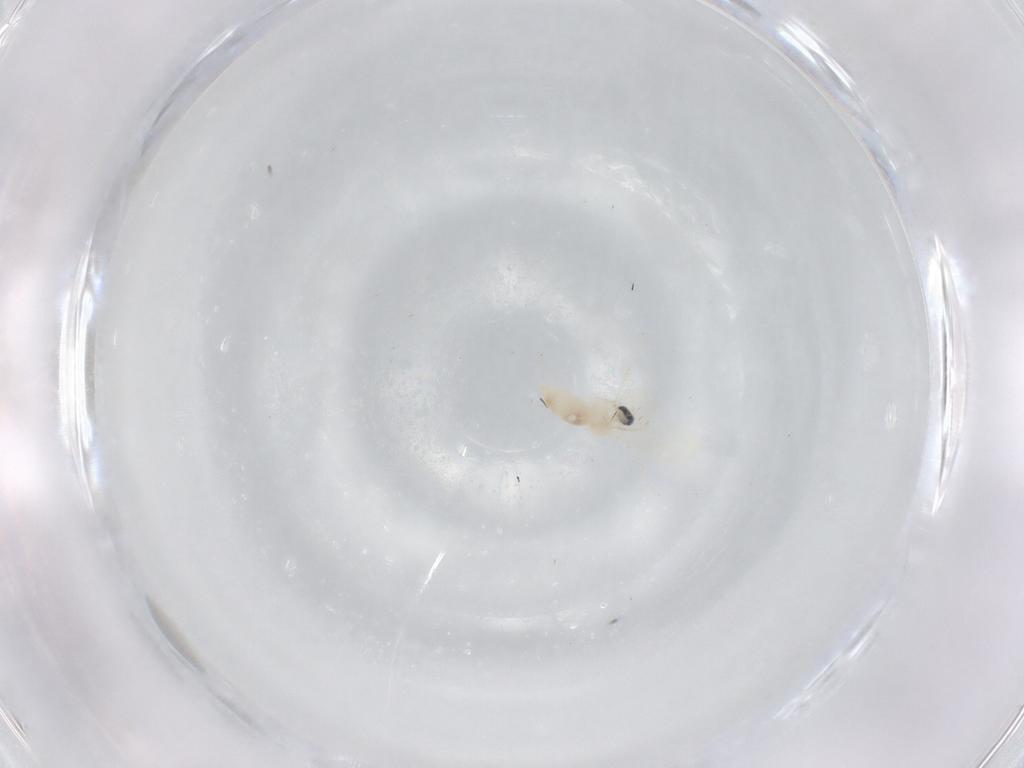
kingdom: Animalia
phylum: Arthropoda
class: Insecta
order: Diptera
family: Cecidomyiidae
